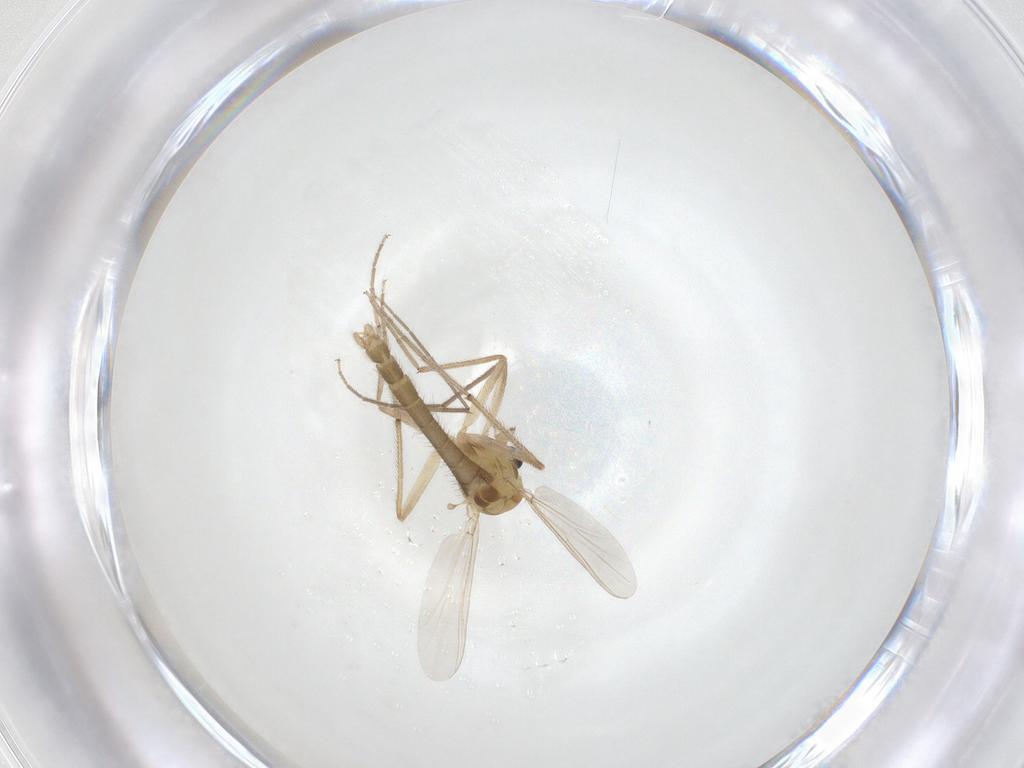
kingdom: Animalia
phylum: Arthropoda
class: Insecta
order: Diptera
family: Chironomidae
